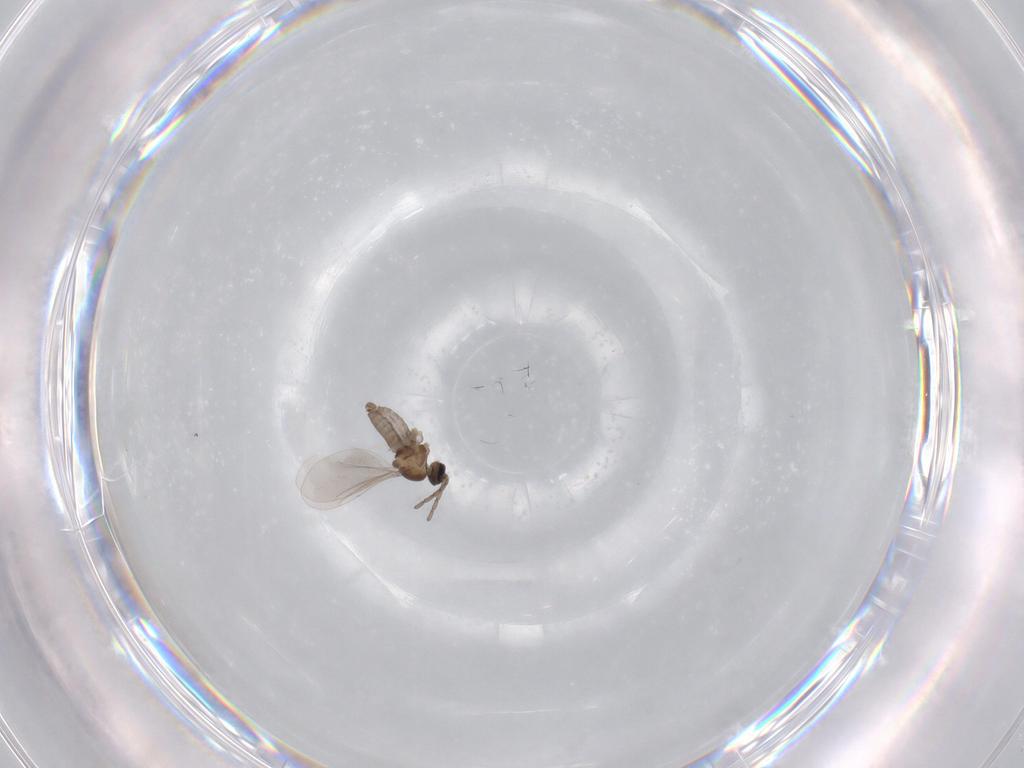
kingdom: Animalia
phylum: Arthropoda
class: Insecta
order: Diptera
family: Cecidomyiidae
